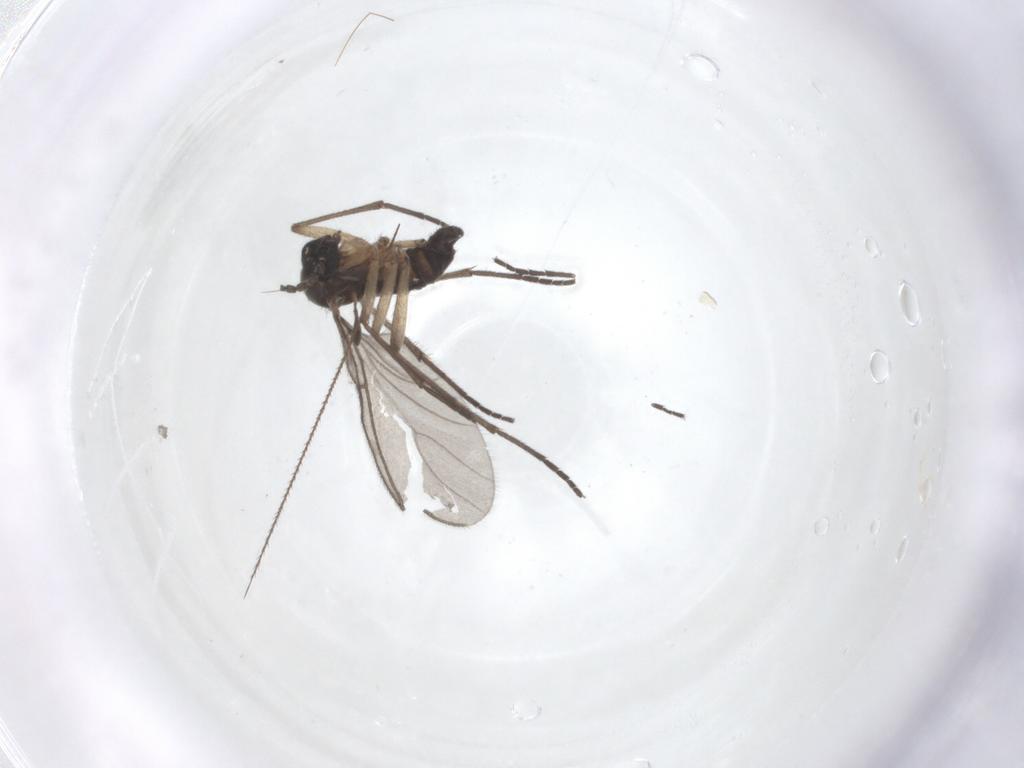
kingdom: Animalia
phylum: Arthropoda
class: Insecta
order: Diptera
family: Sciaridae
